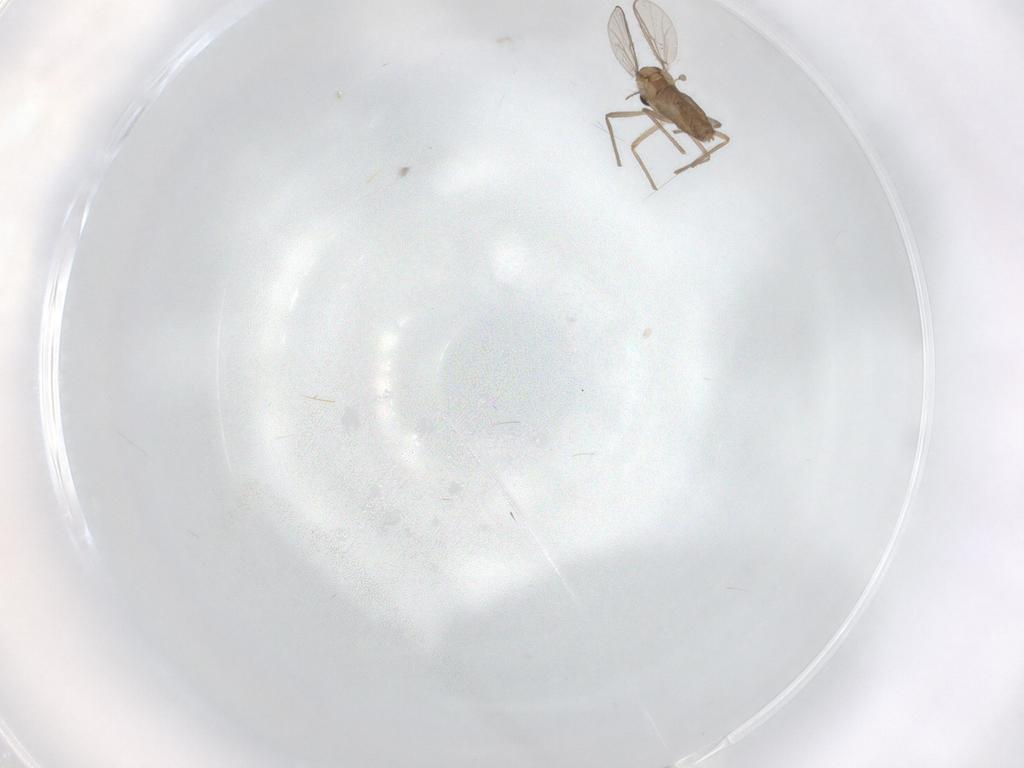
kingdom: Animalia
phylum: Arthropoda
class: Insecta
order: Diptera
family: Chironomidae
